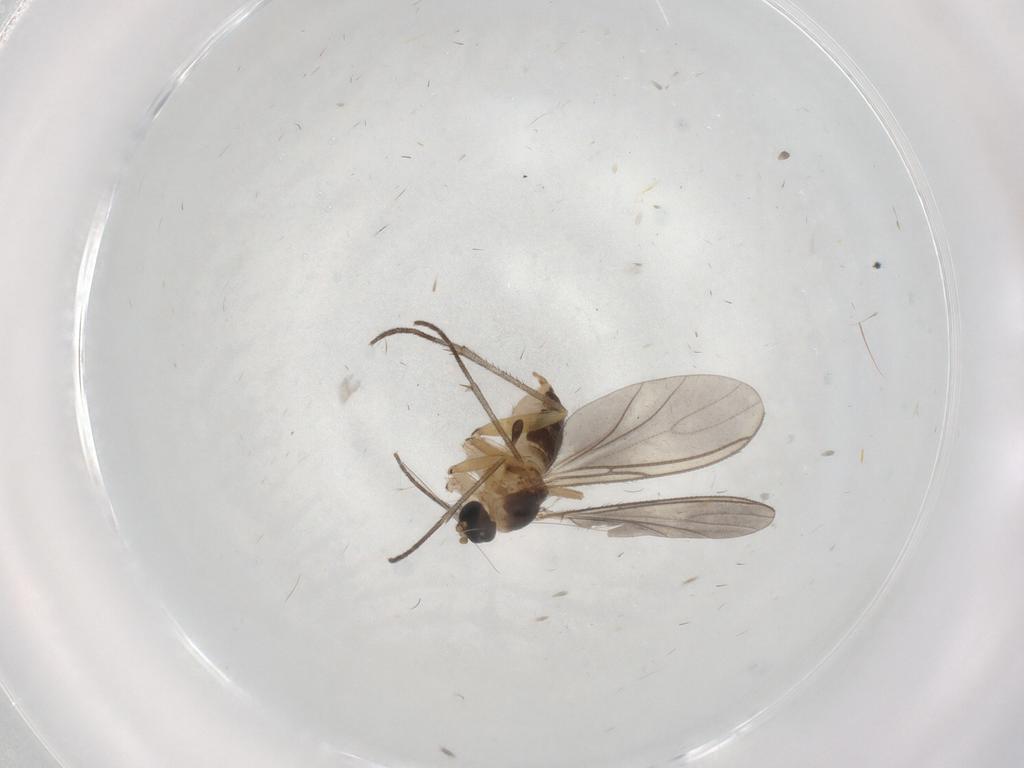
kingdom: Animalia
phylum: Arthropoda
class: Insecta
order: Diptera
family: Sciaridae
